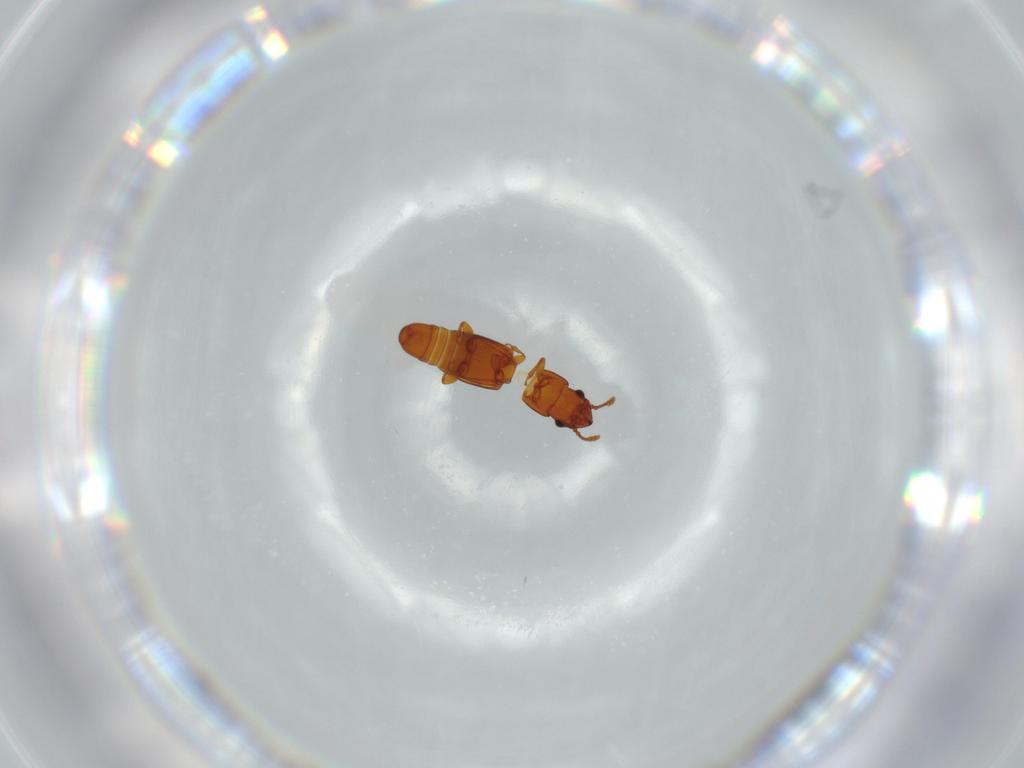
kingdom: Animalia
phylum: Arthropoda
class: Insecta
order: Coleoptera
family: Smicripidae
